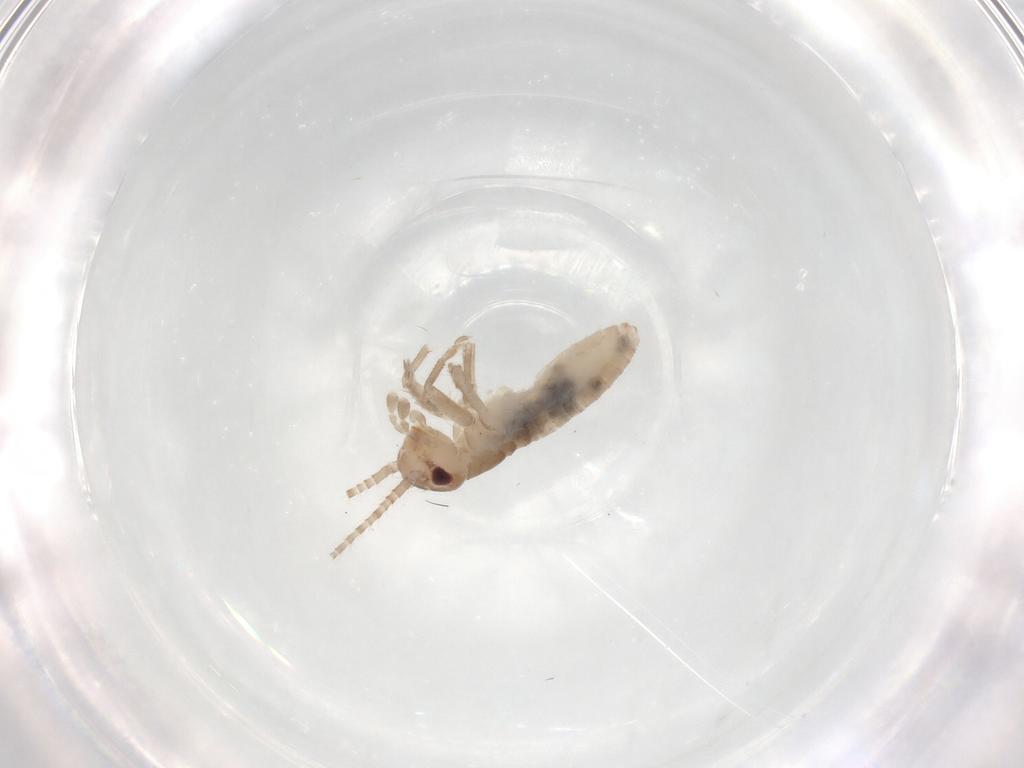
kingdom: Animalia
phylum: Arthropoda
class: Insecta
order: Orthoptera
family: Mogoplistidae
